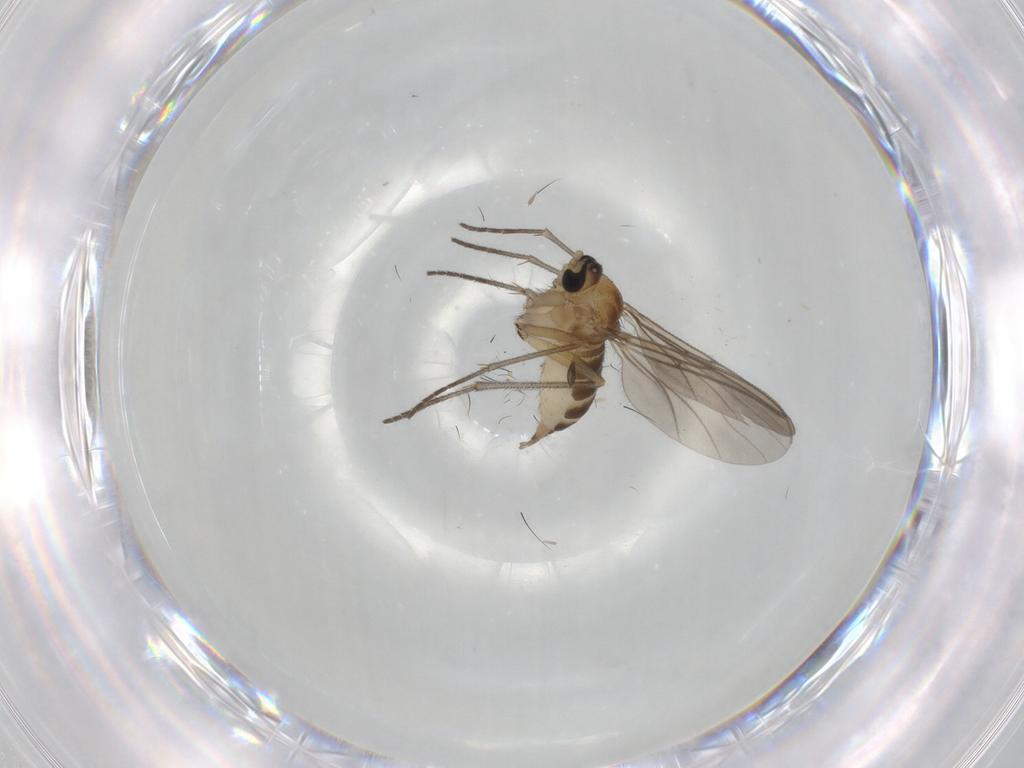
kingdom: Animalia
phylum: Arthropoda
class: Insecta
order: Diptera
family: Sciaridae
